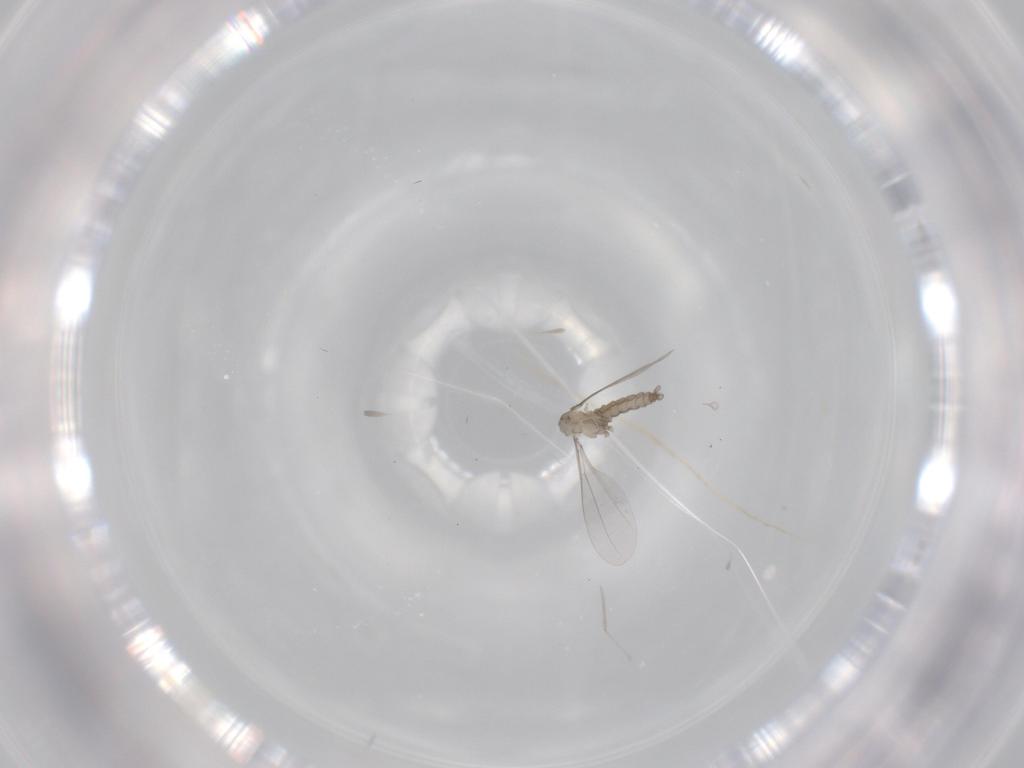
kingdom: Animalia
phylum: Arthropoda
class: Insecta
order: Diptera
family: Cecidomyiidae
